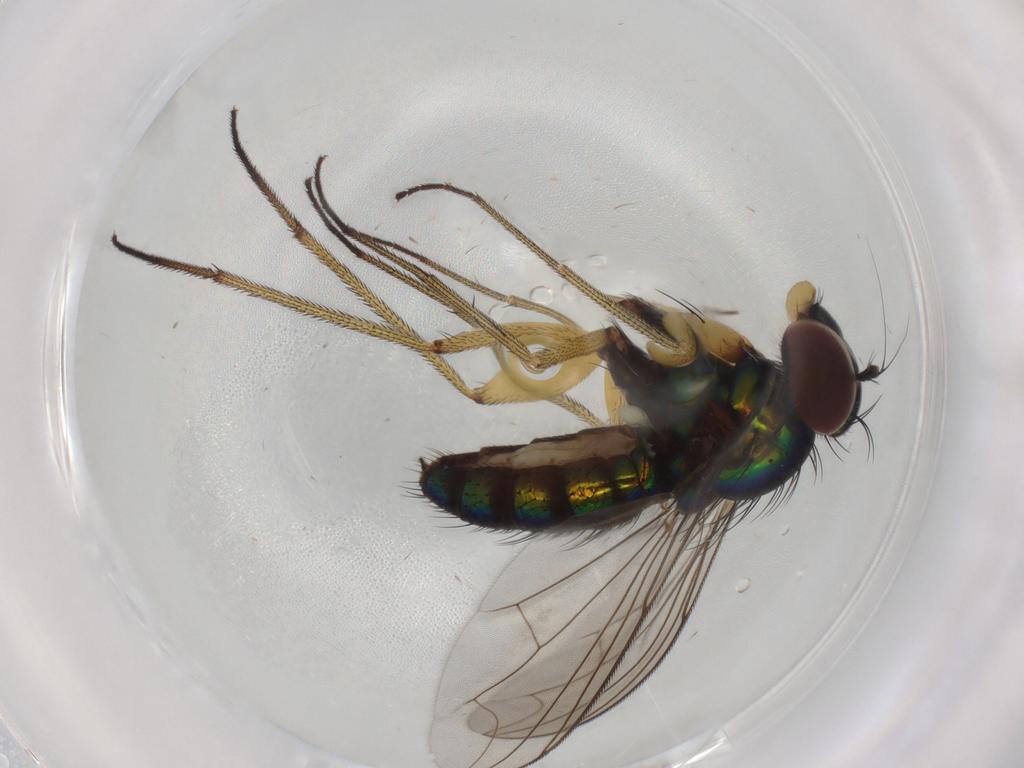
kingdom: Animalia
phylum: Arthropoda
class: Insecta
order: Diptera
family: Dolichopodidae
